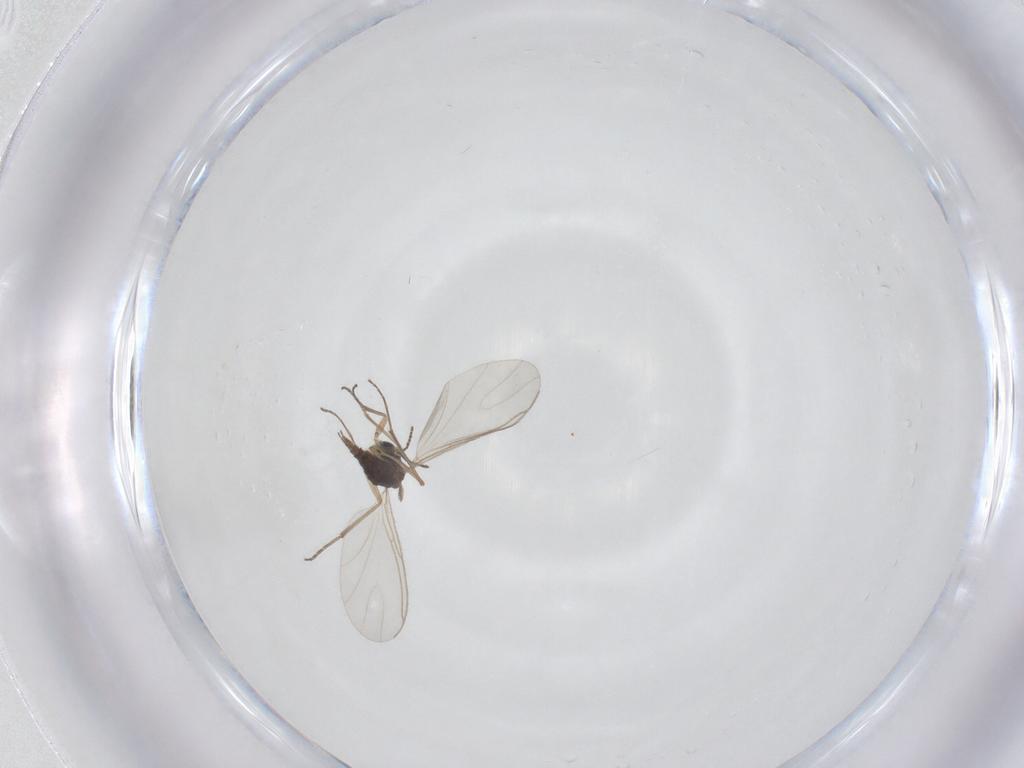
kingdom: Animalia
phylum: Arthropoda
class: Insecta
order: Diptera
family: Sciaridae
